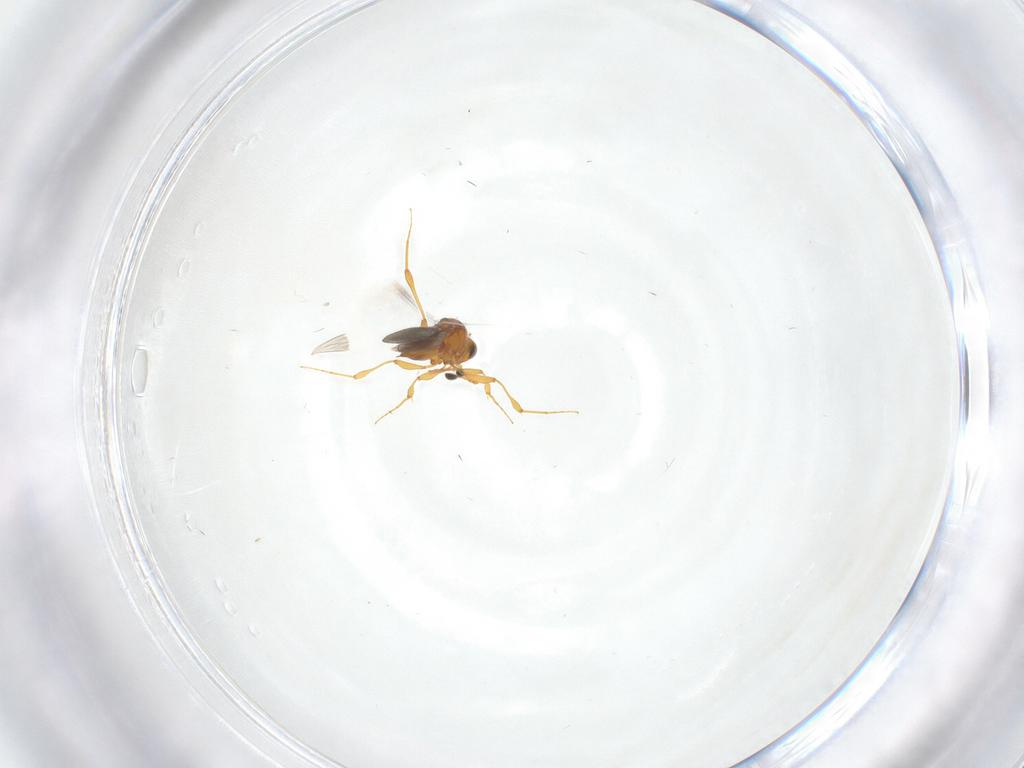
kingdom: Animalia
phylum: Arthropoda
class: Insecta
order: Hymenoptera
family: Platygastridae
